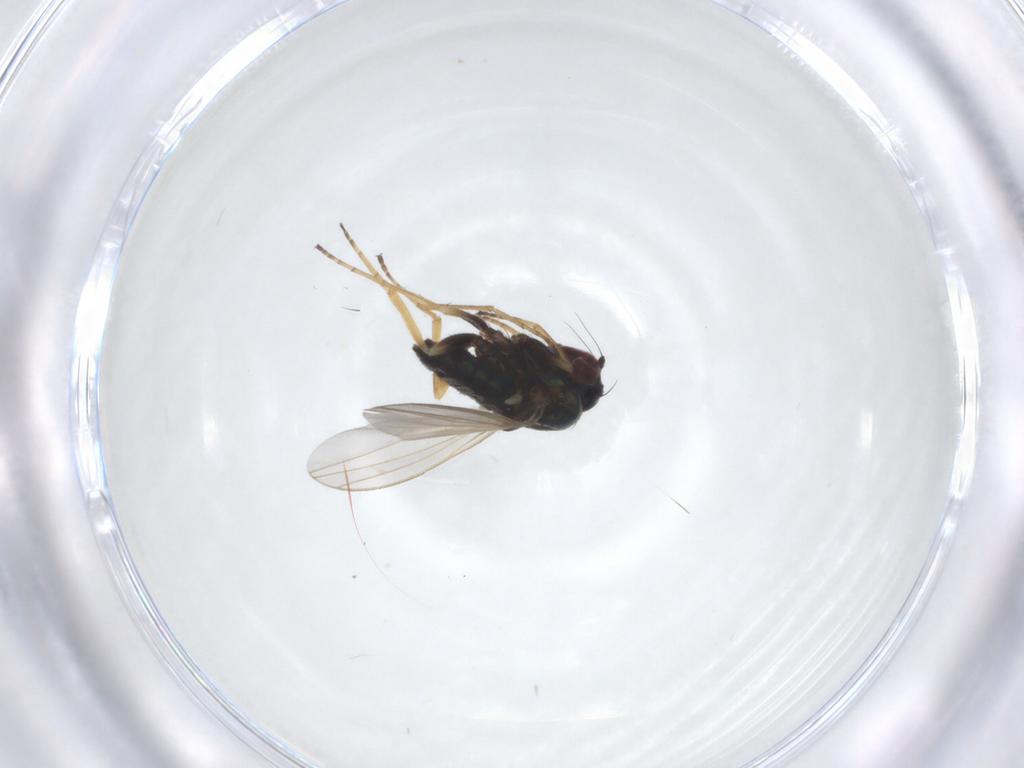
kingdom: Animalia
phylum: Arthropoda
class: Insecta
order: Diptera
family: Dolichopodidae
